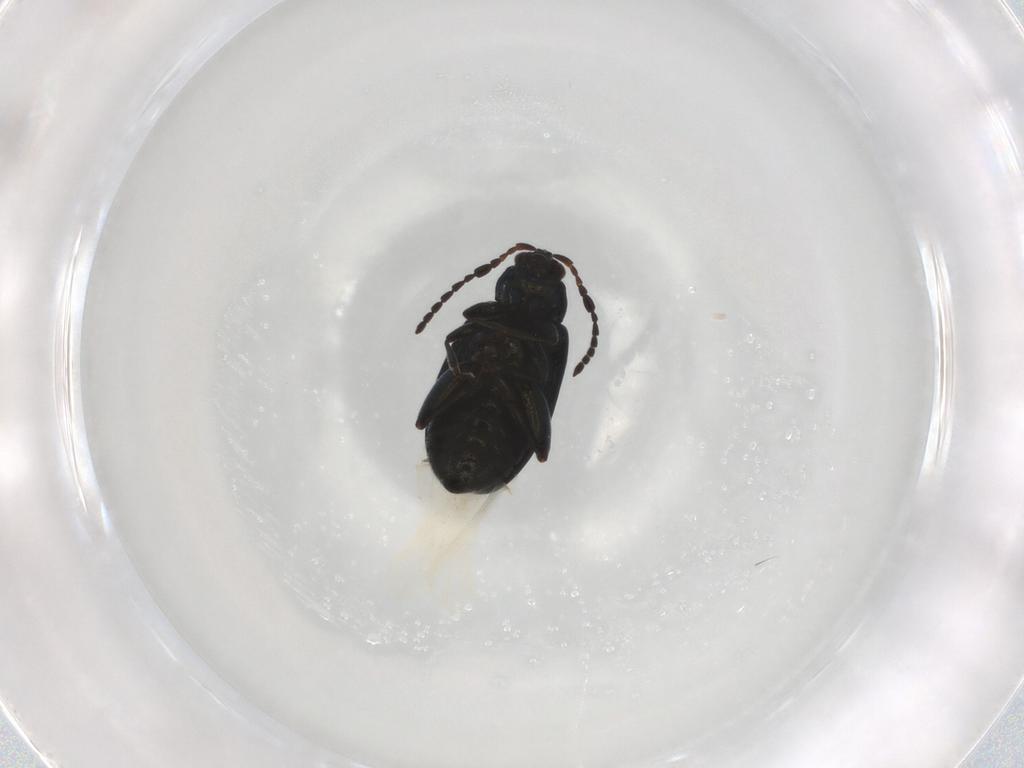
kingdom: Animalia
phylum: Arthropoda
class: Insecta
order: Coleoptera
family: Chrysomelidae
